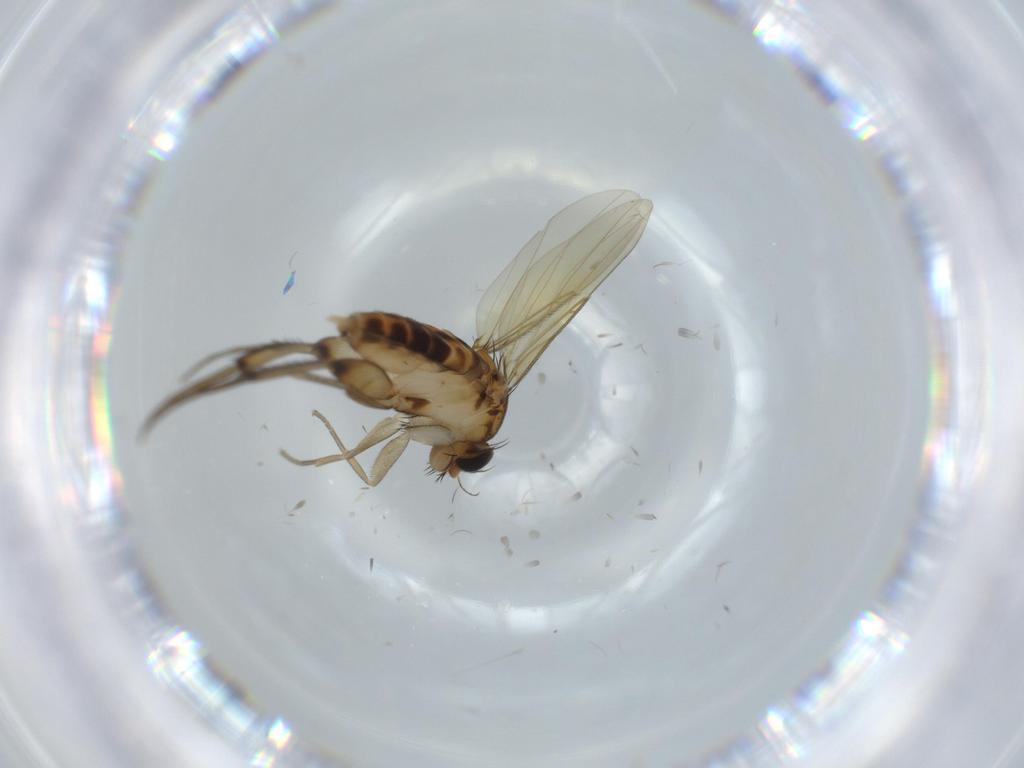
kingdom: Animalia
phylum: Arthropoda
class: Insecta
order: Diptera
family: Phoridae
